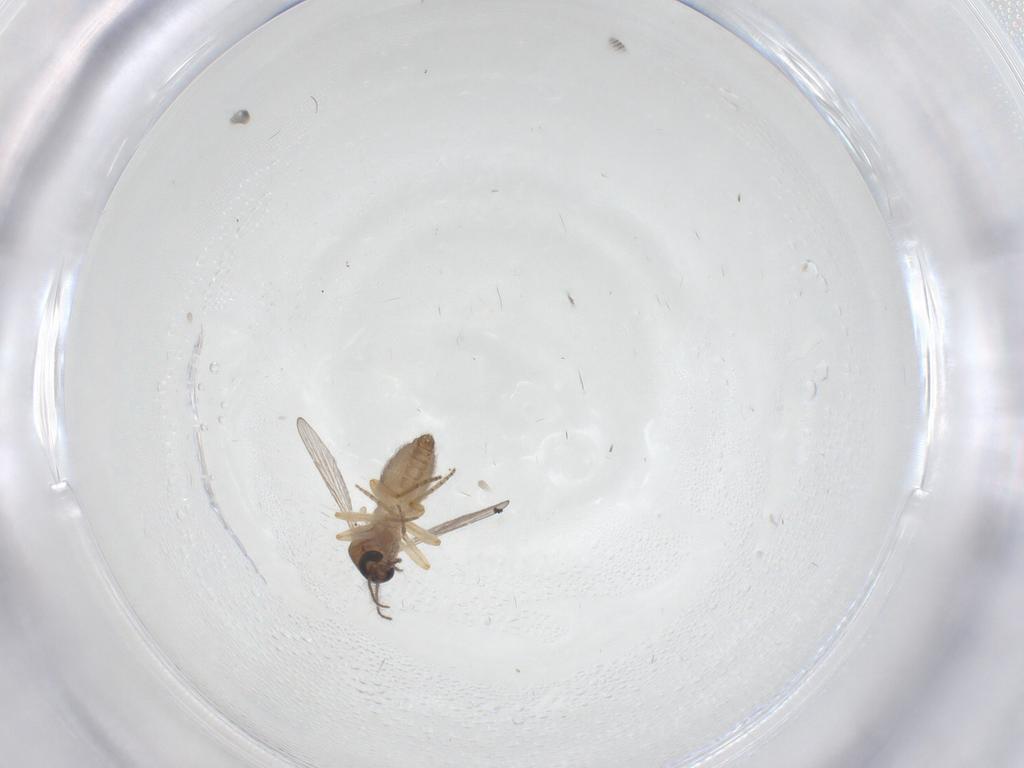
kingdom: Animalia
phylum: Arthropoda
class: Insecta
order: Diptera
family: Ceratopogonidae
